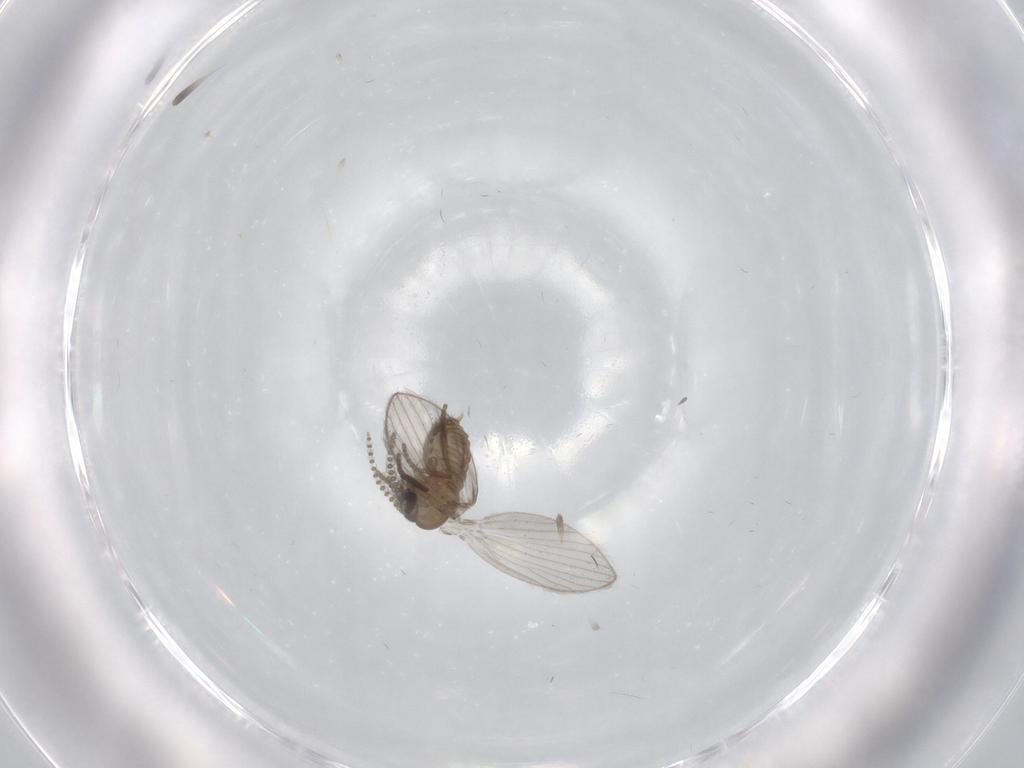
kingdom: Animalia
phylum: Arthropoda
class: Insecta
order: Diptera
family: Psychodidae
